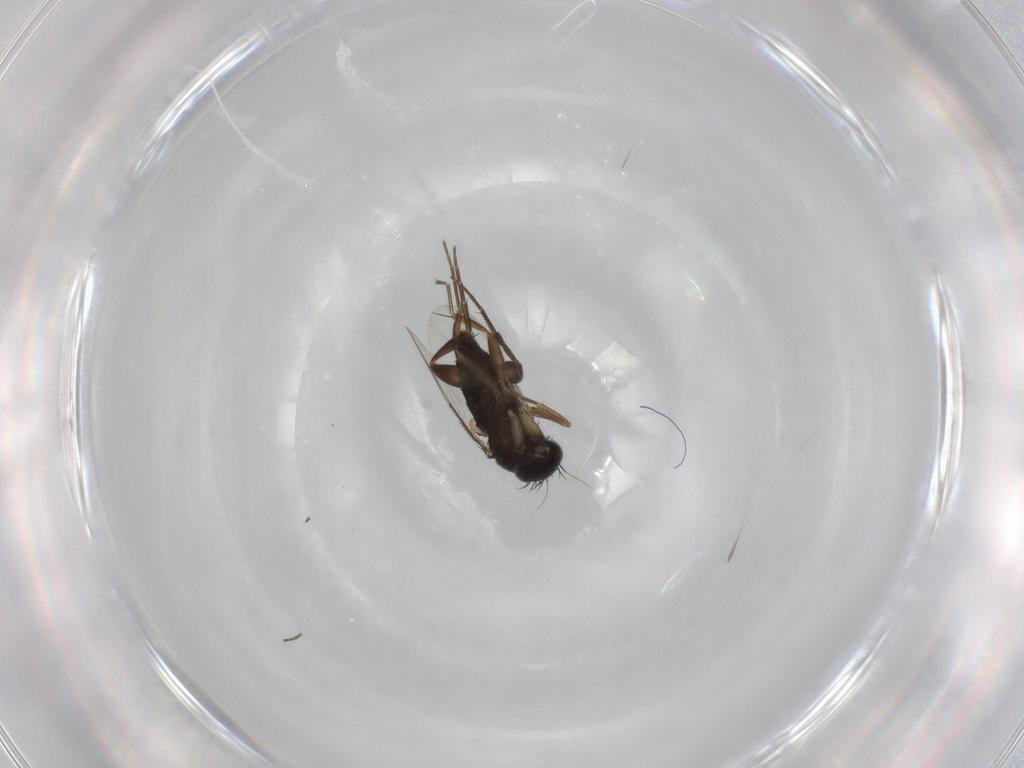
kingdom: Animalia
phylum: Arthropoda
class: Insecta
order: Diptera
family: Phoridae
